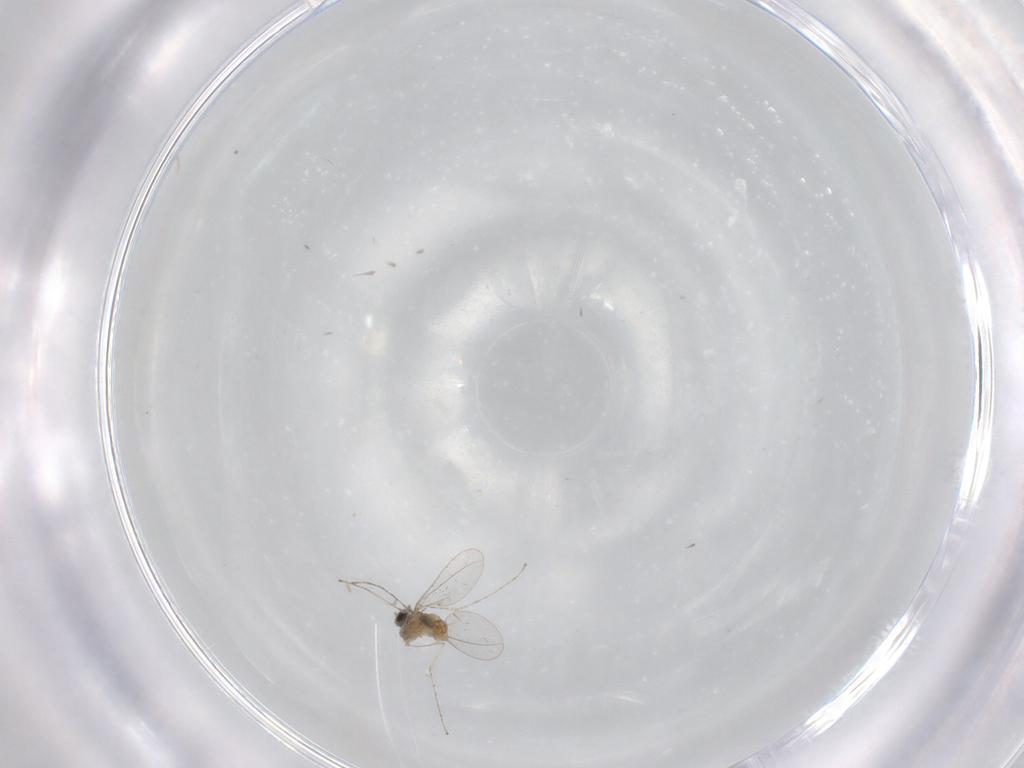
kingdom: Animalia
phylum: Arthropoda
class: Insecta
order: Diptera
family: Cecidomyiidae
